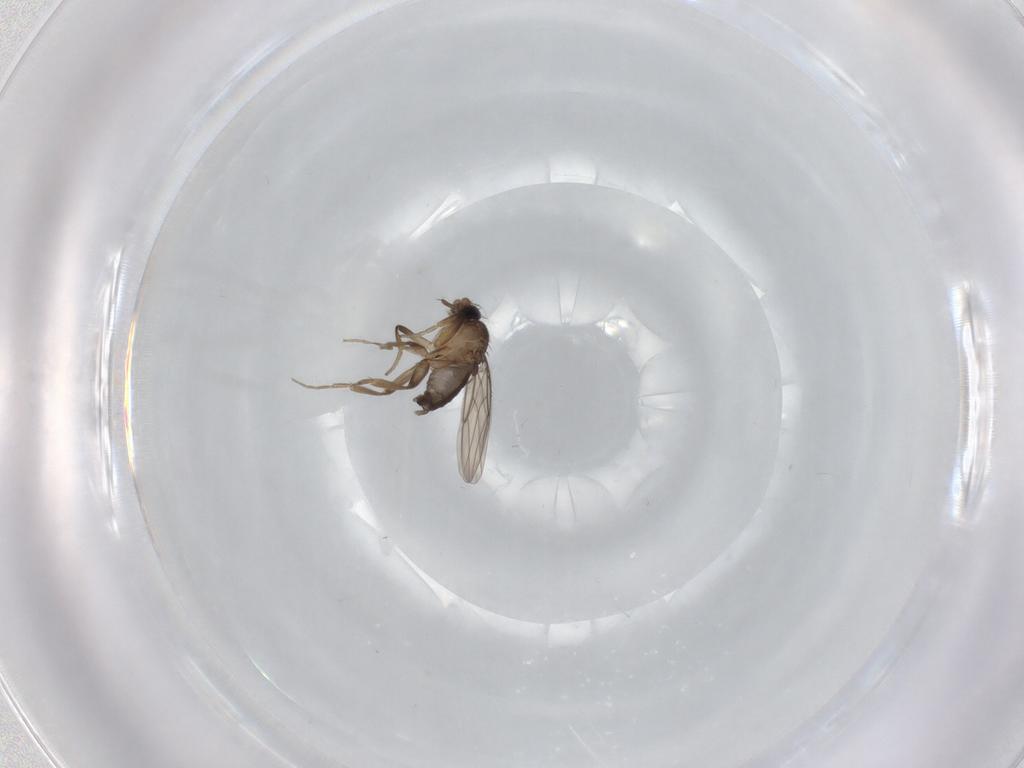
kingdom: Animalia
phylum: Arthropoda
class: Insecta
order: Diptera
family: Phoridae
